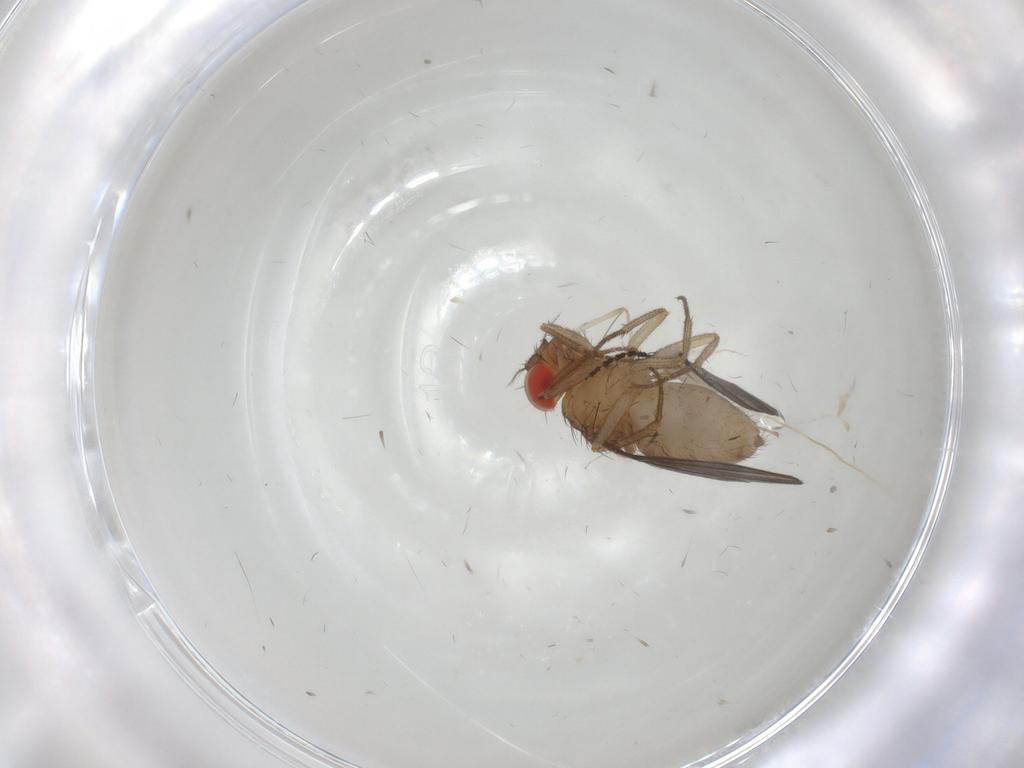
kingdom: Animalia
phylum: Arthropoda
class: Insecta
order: Diptera
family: Drosophilidae
